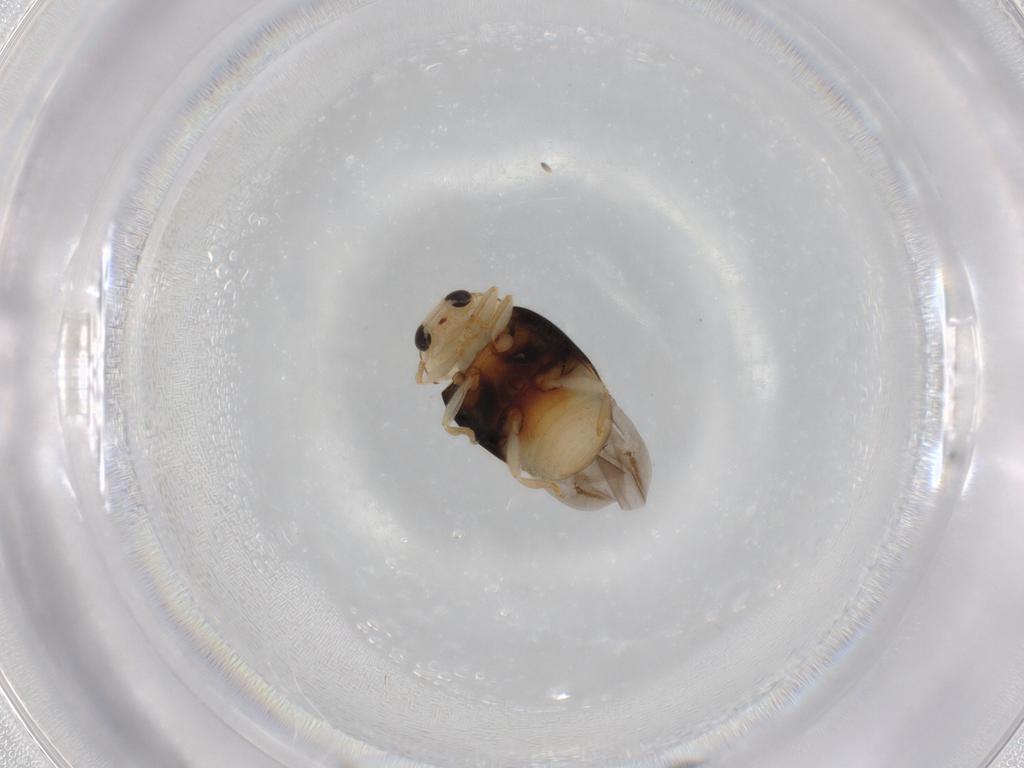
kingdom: Animalia
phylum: Arthropoda
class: Insecta
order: Coleoptera
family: Coccinellidae
